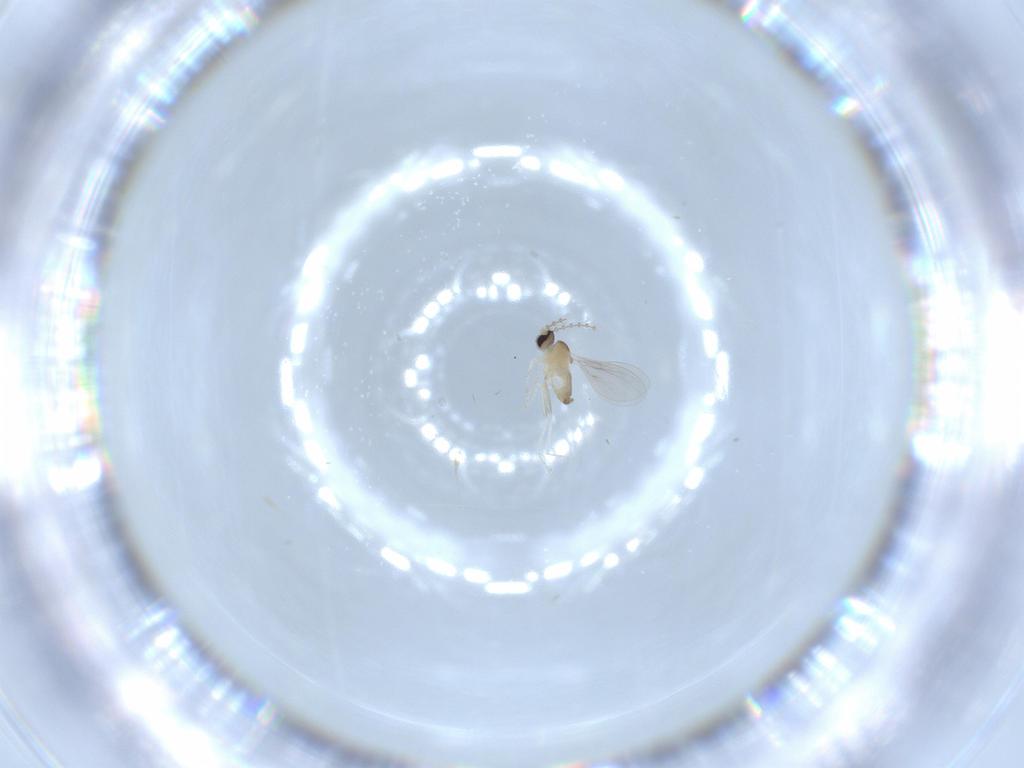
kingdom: Animalia
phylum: Arthropoda
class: Insecta
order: Diptera
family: Sciaridae
